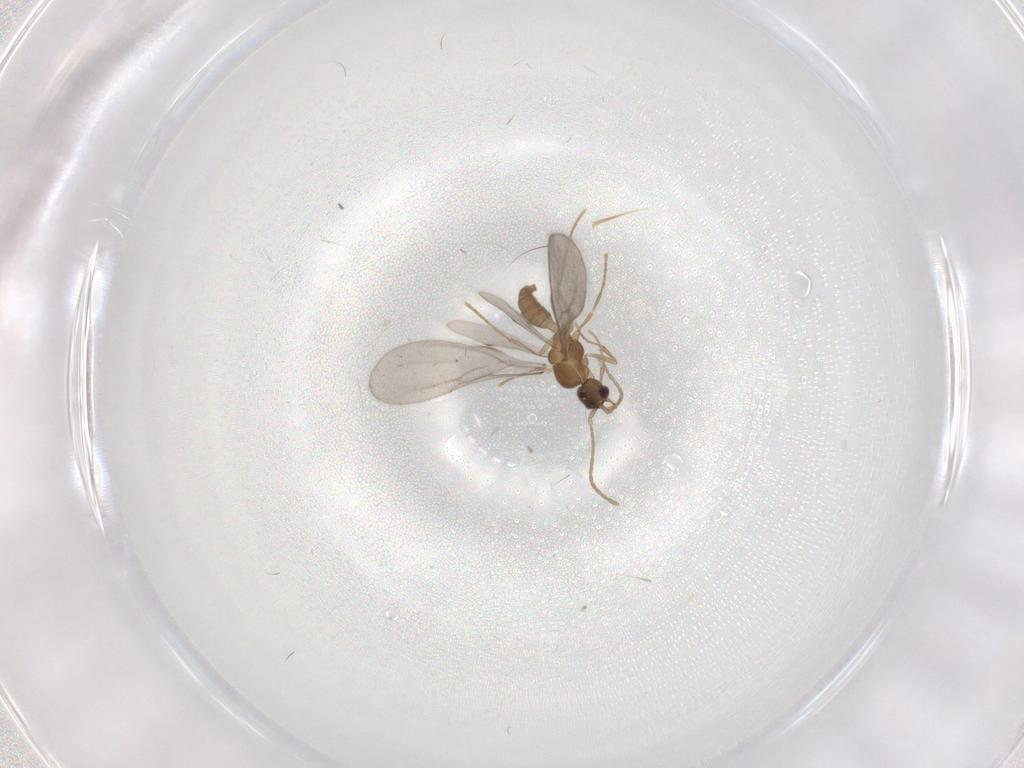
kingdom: Animalia
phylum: Arthropoda
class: Insecta
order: Hymenoptera
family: Formicidae
